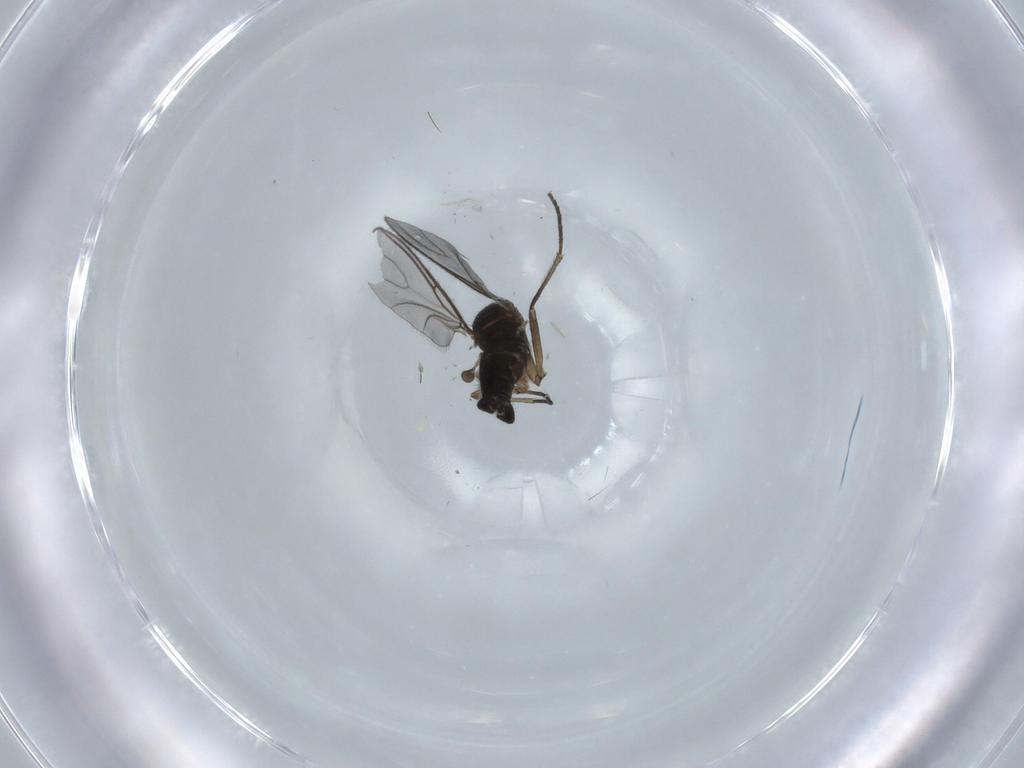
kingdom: Animalia
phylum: Arthropoda
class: Insecta
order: Diptera
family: Sciaridae
